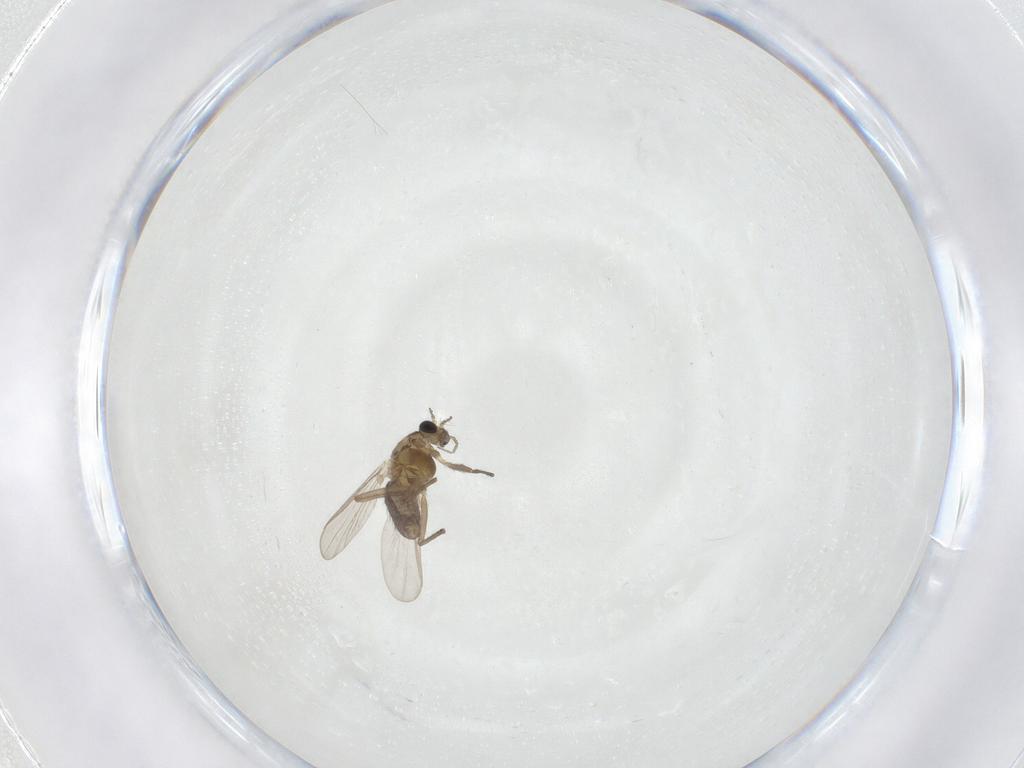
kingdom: Animalia
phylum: Arthropoda
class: Insecta
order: Diptera
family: Chironomidae
